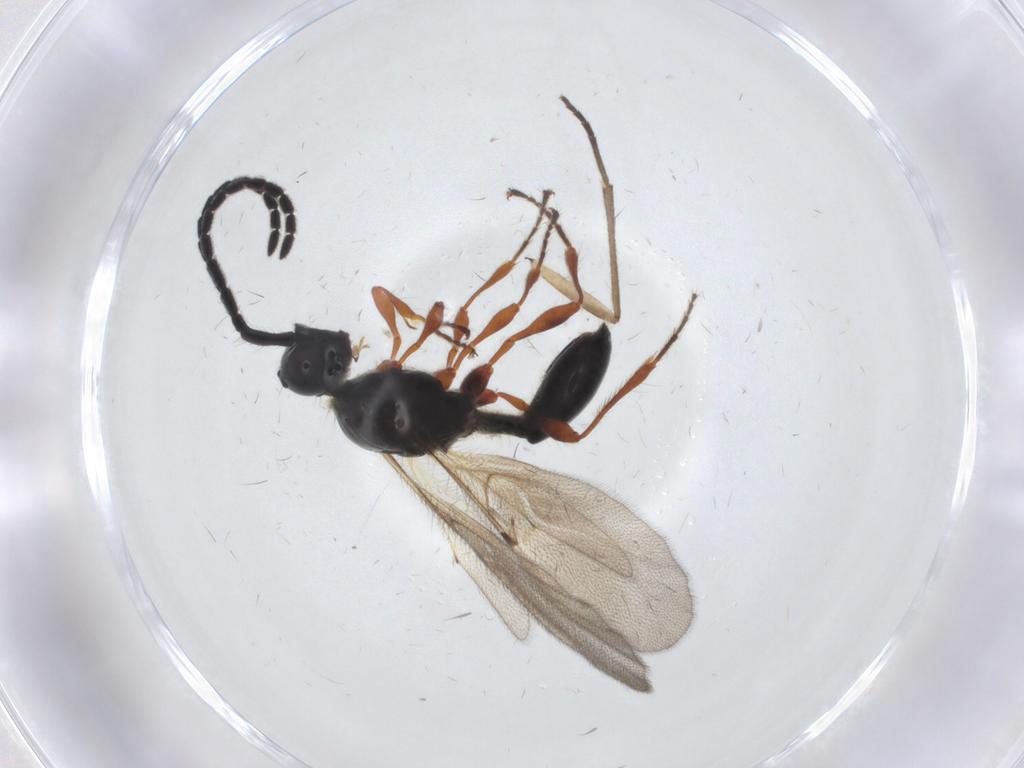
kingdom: Animalia
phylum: Arthropoda
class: Insecta
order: Hymenoptera
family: Diapriidae
